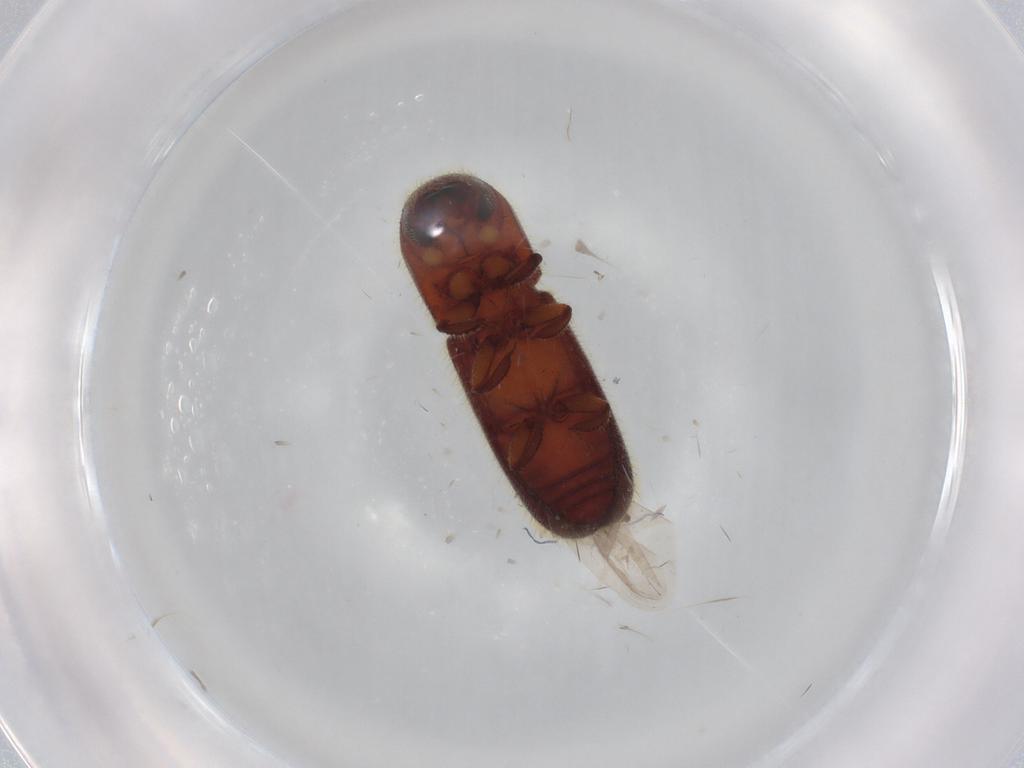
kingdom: Animalia
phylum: Arthropoda
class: Insecta
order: Coleoptera
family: Curculionidae
